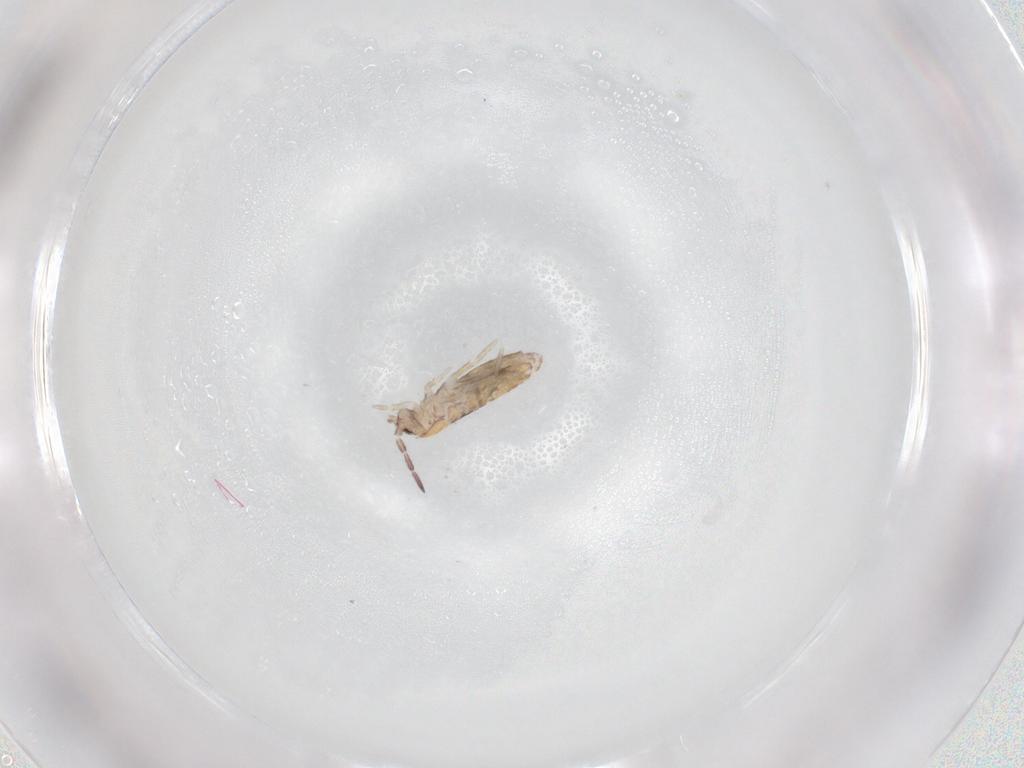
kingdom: Animalia
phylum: Arthropoda
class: Collembola
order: Entomobryomorpha
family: Entomobryidae
